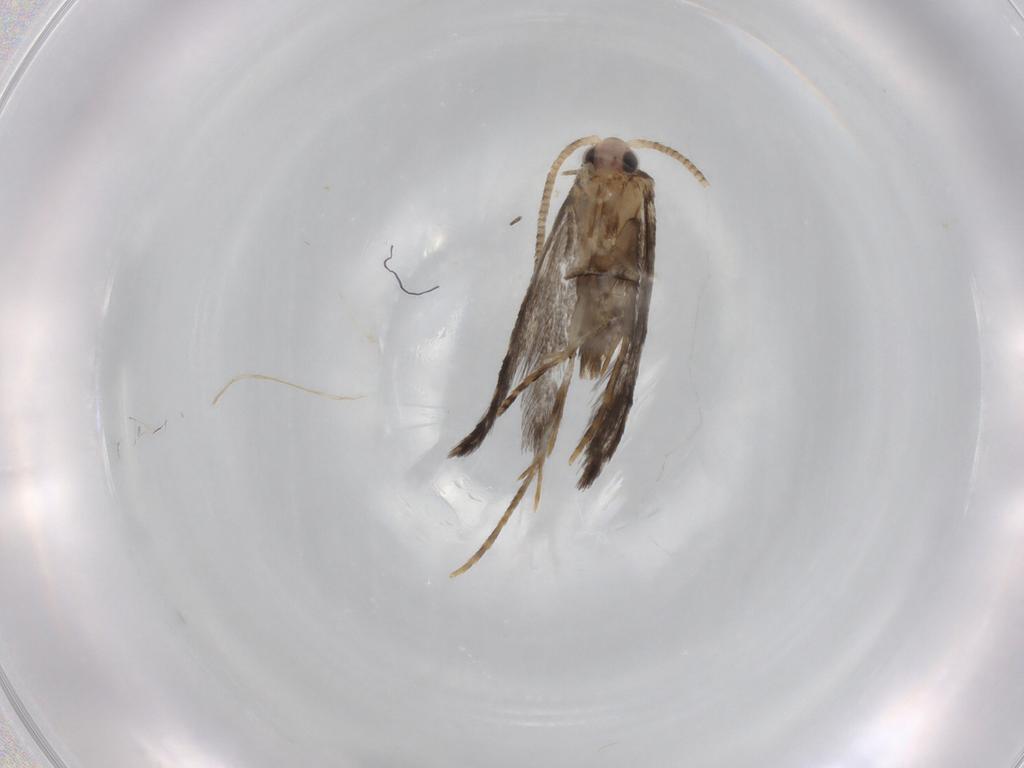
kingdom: Animalia
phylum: Arthropoda
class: Insecta
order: Lepidoptera
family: Tineidae
